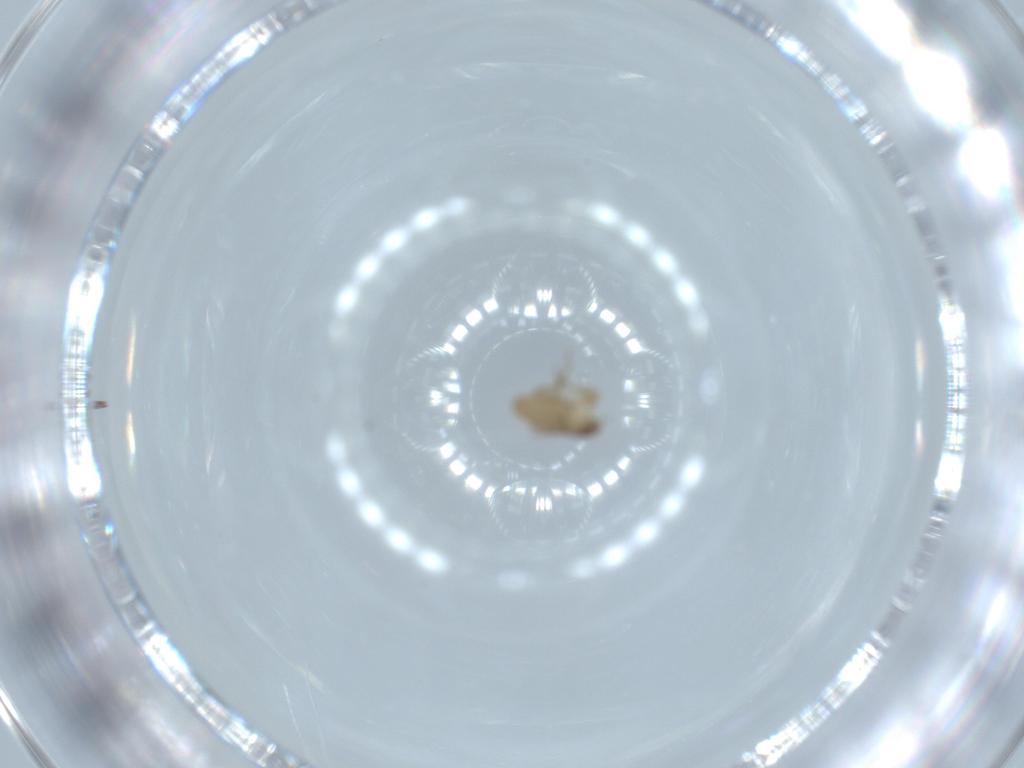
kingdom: Animalia
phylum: Arthropoda
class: Insecta
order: Diptera
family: Phoridae
